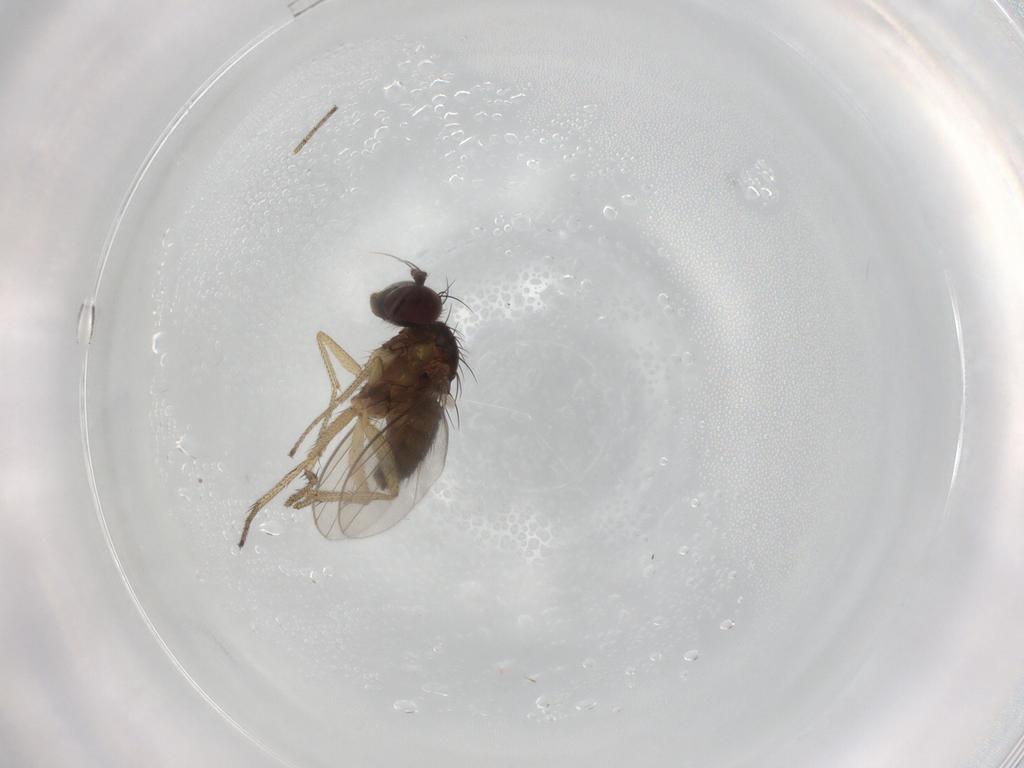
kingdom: Animalia
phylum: Arthropoda
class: Insecta
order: Diptera
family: Dolichopodidae
